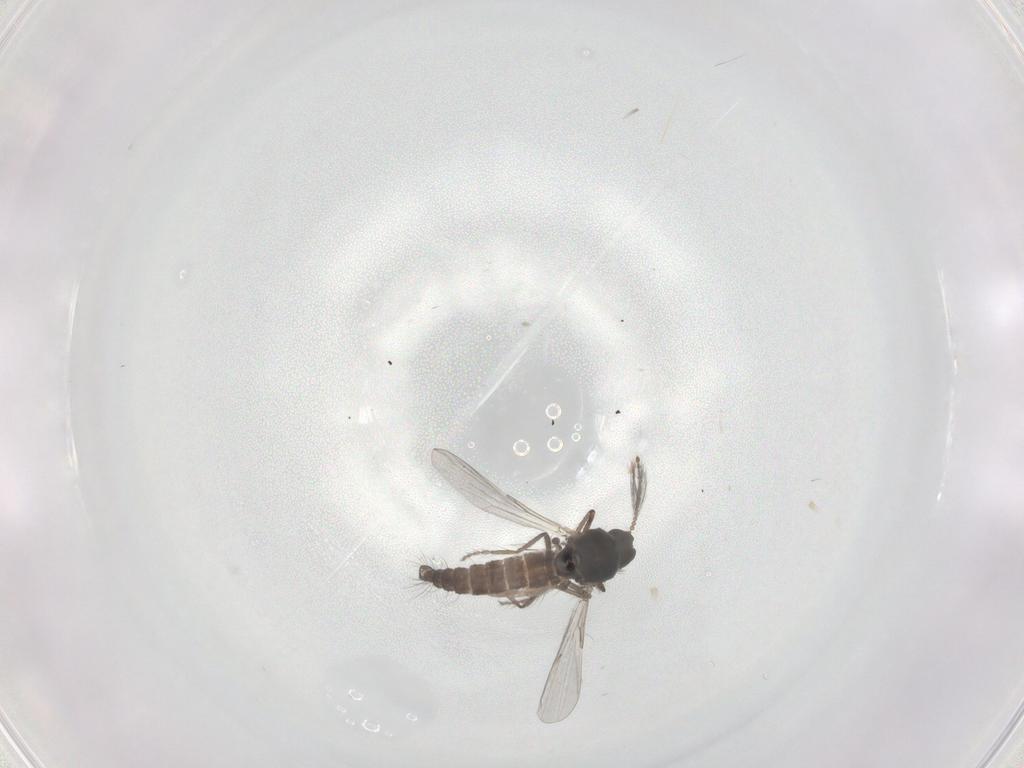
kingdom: Animalia
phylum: Arthropoda
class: Insecta
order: Diptera
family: Ceratopogonidae
